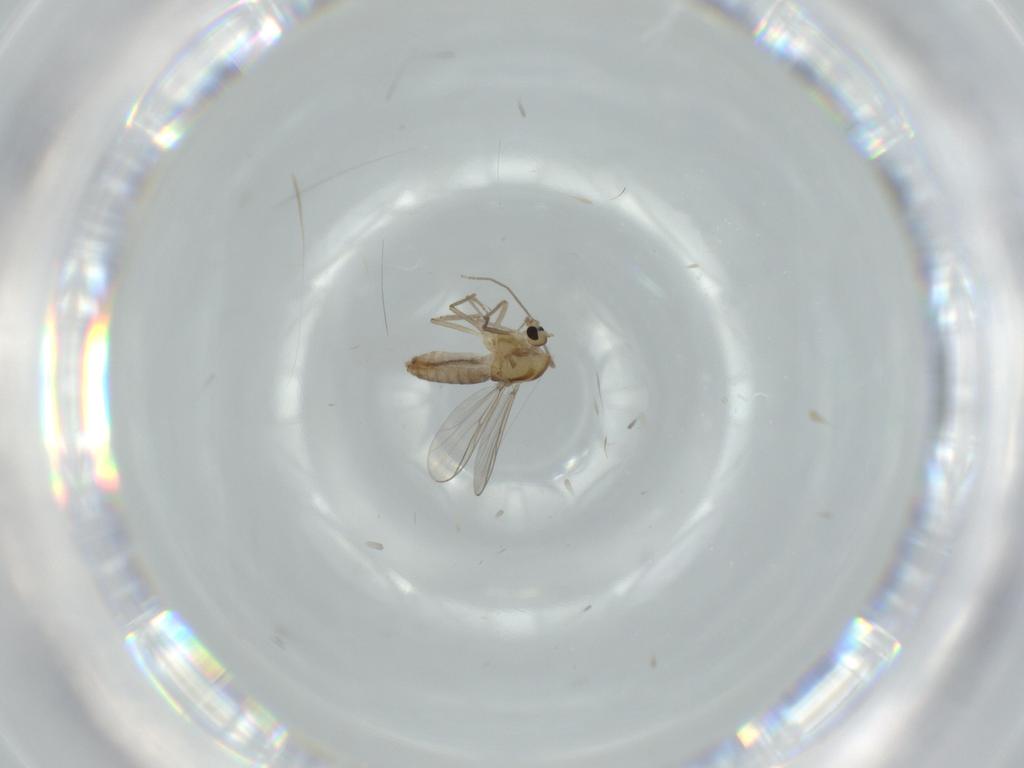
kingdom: Animalia
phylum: Arthropoda
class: Insecta
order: Diptera
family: Chironomidae
